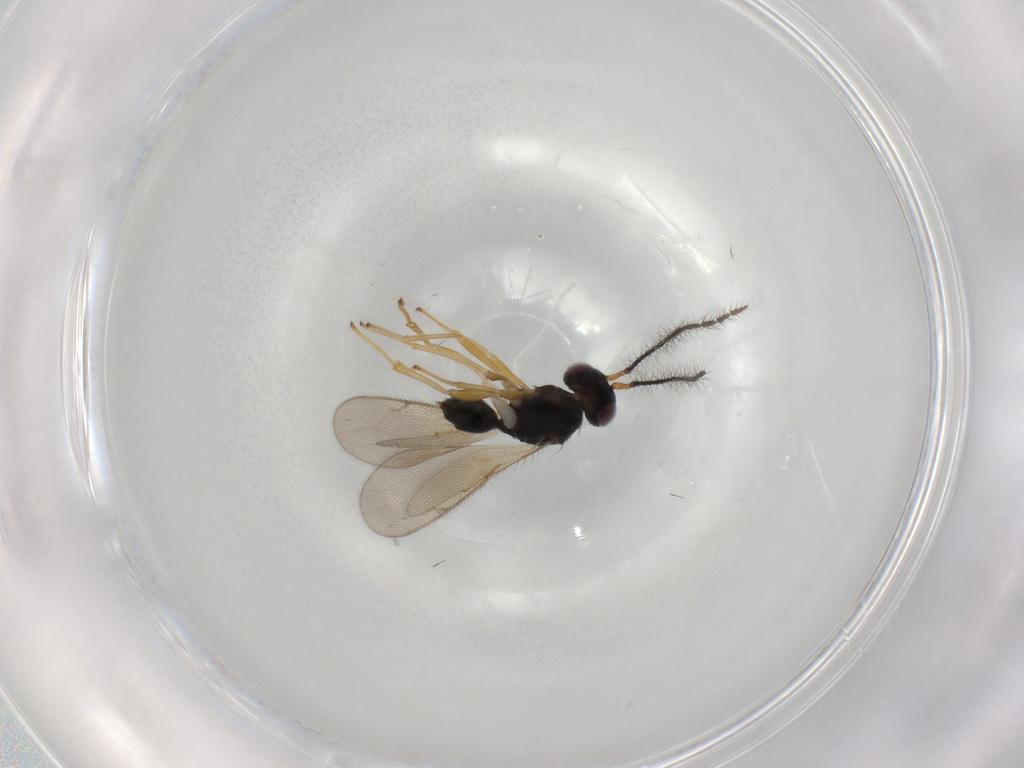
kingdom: Animalia
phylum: Arthropoda
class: Insecta
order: Hymenoptera
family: Diparidae
